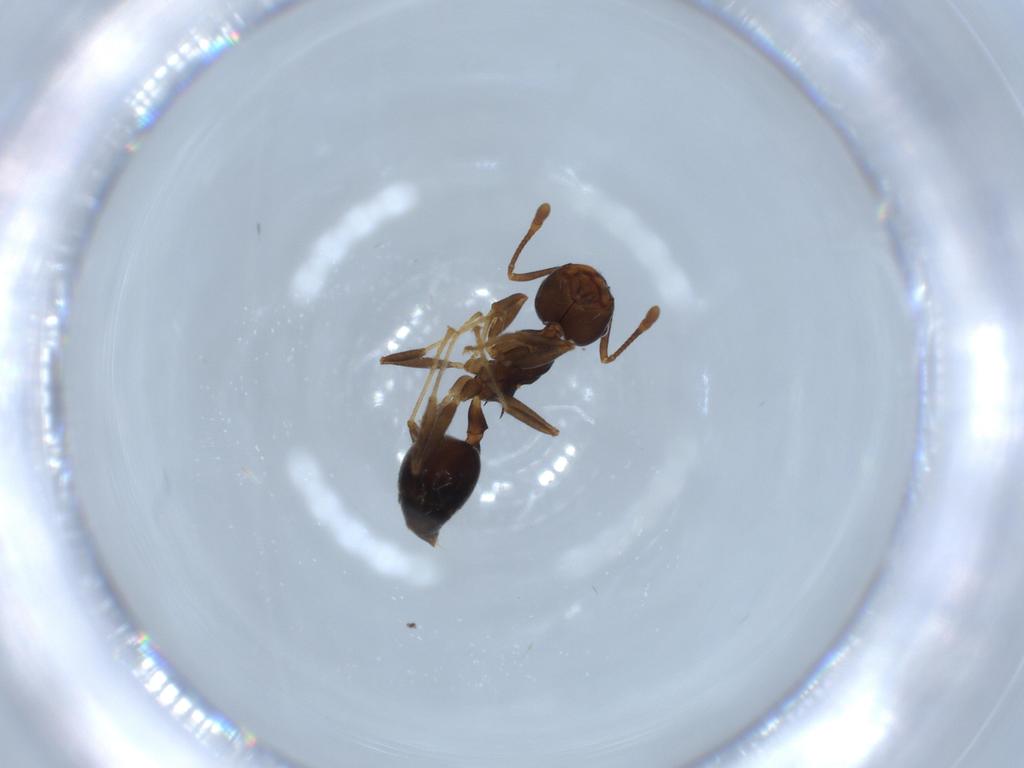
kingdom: Animalia
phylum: Arthropoda
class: Insecta
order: Hymenoptera
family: Formicidae
